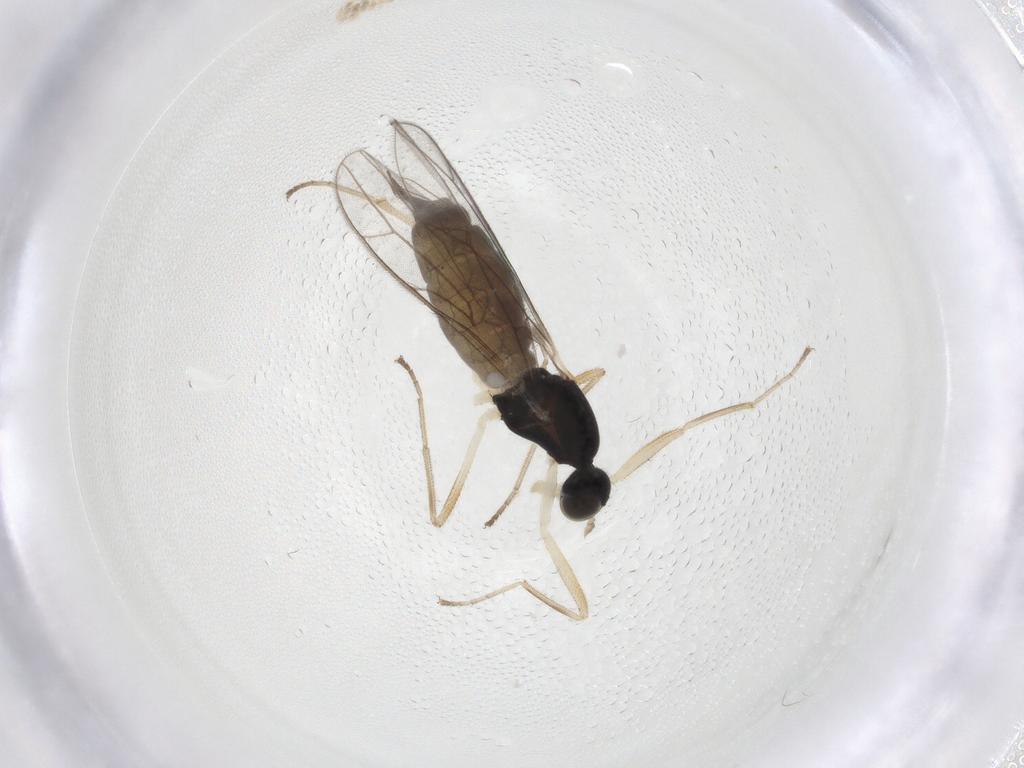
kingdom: Animalia
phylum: Arthropoda
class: Insecta
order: Diptera
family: Empididae
